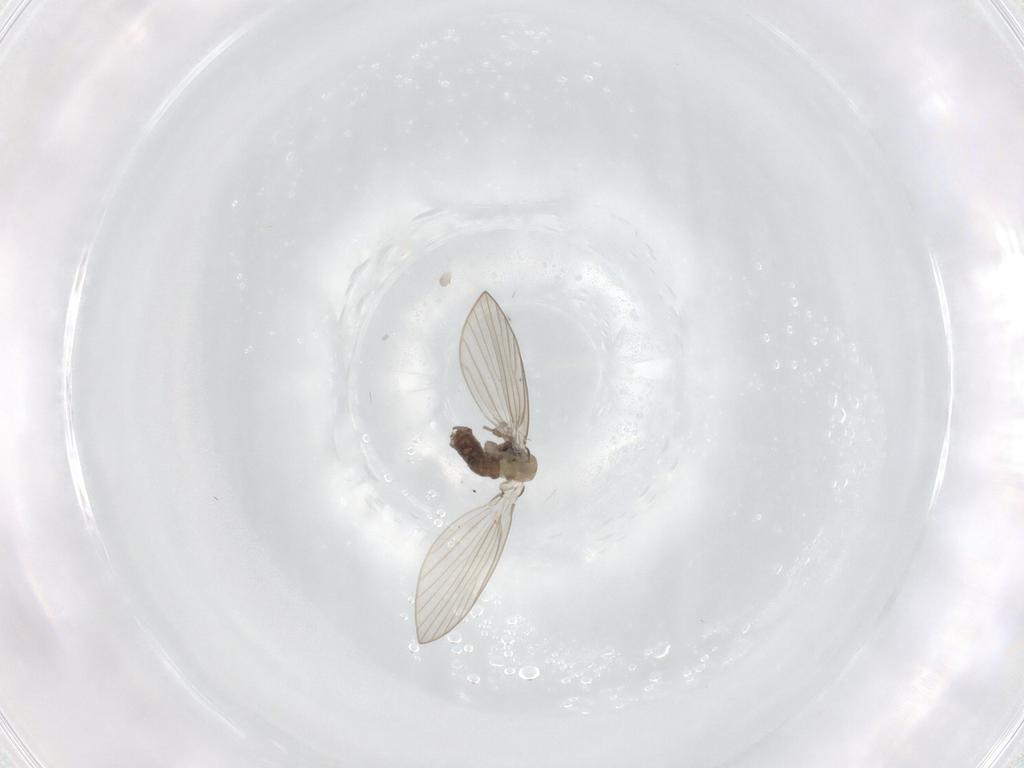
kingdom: Animalia
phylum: Arthropoda
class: Insecta
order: Diptera
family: Psychodidae
